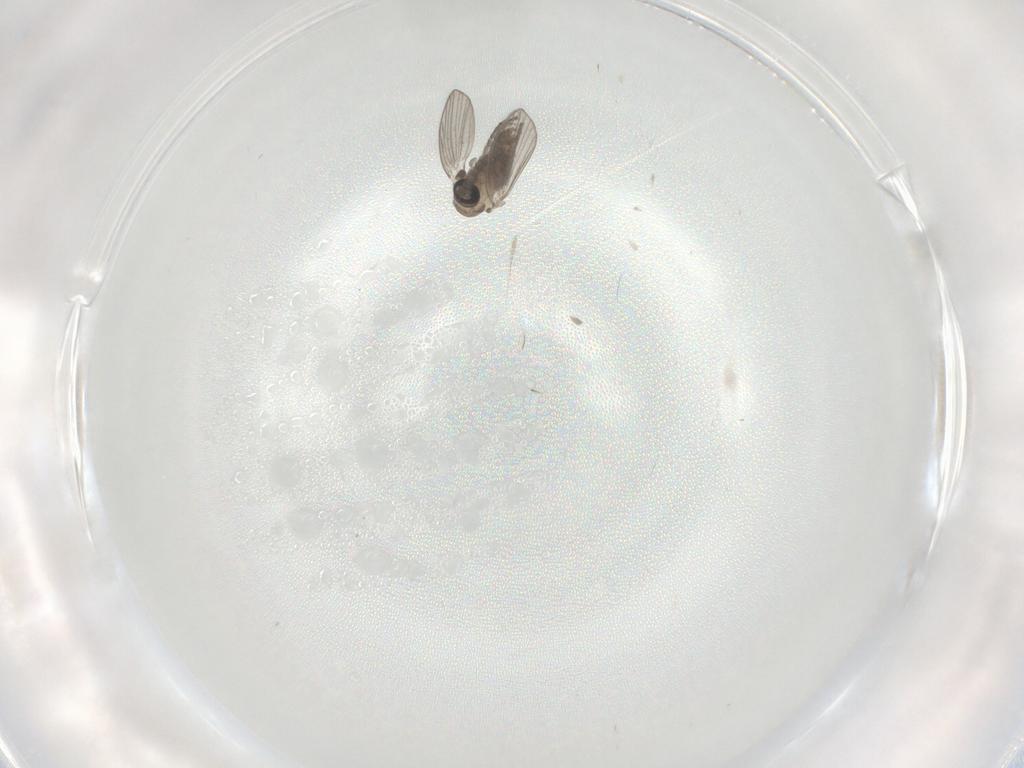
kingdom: Animalia
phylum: Arthropoda
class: Insecta
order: Diptera
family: Psychodidae
